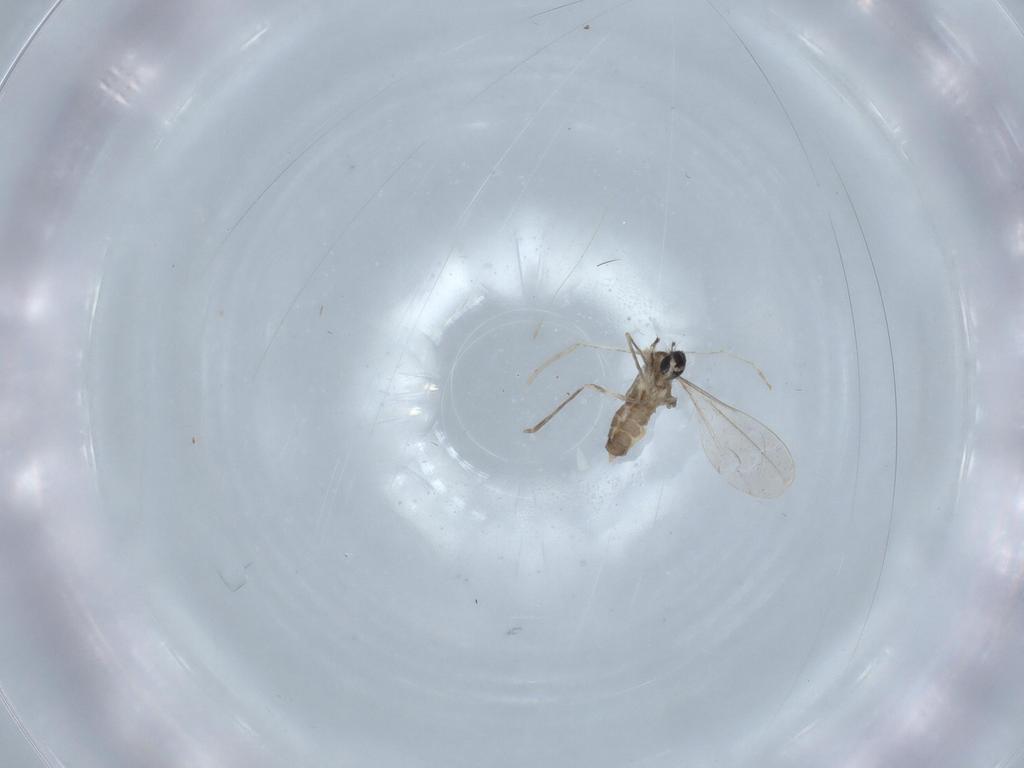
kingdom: Animalia
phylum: Arthropoda
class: Insecta
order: Diptera
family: Cecidomyiidae
